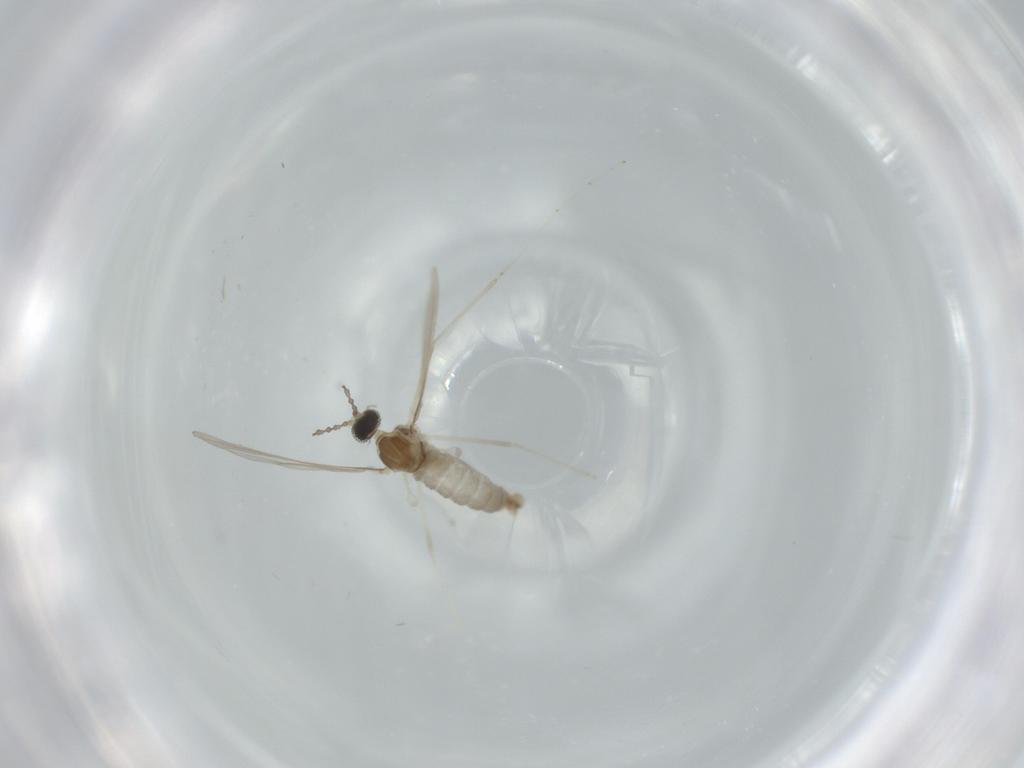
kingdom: Animalia
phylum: Arthropoda
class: Insecta
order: Diptera
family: Cecidomyiidae
